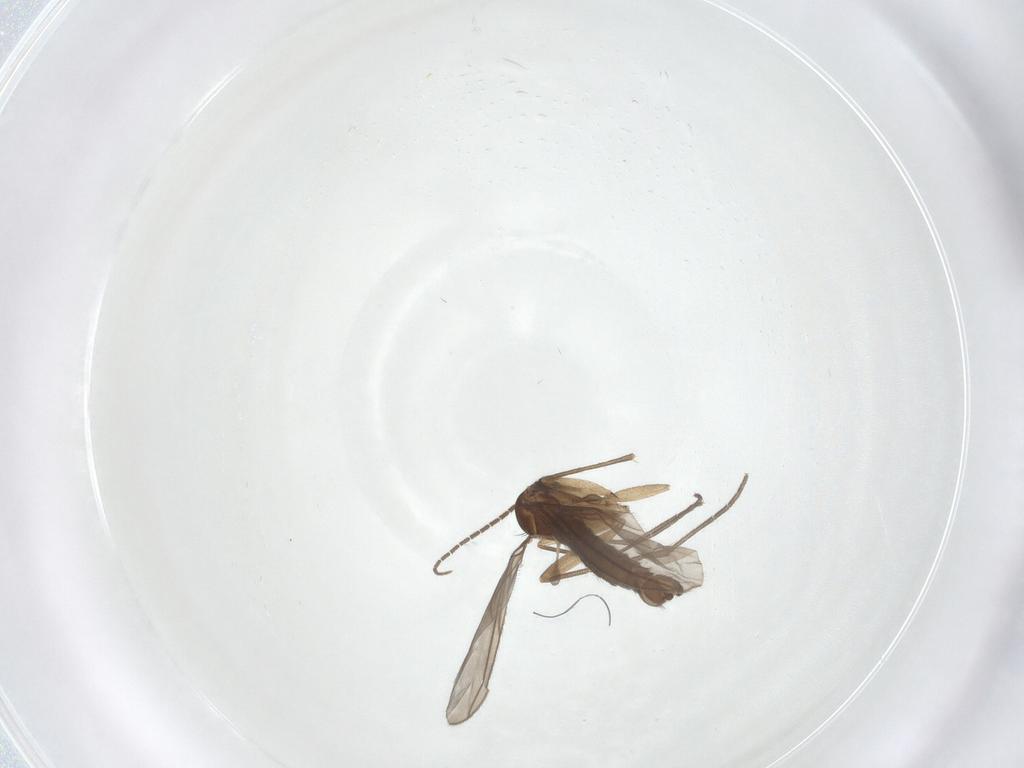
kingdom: Animalia
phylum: Arthropoda
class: Insecta
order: Diptera
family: Sciaridae
